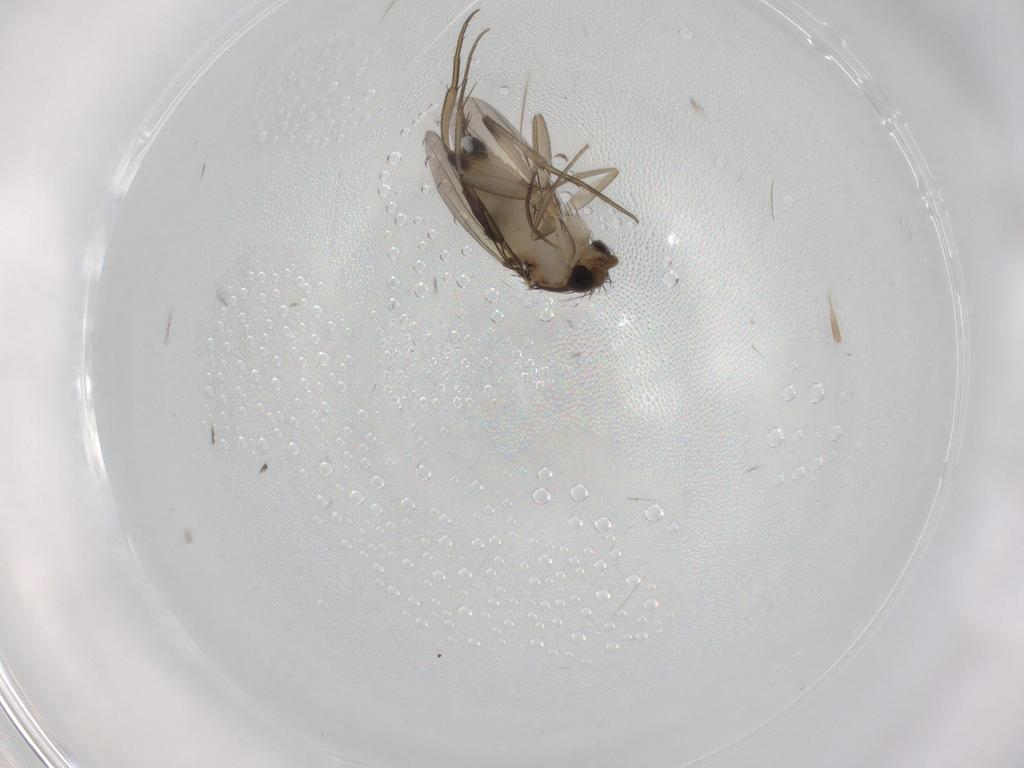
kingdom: Animalia
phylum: Arthropoda
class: Insecta
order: Diptera
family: Phoridae
